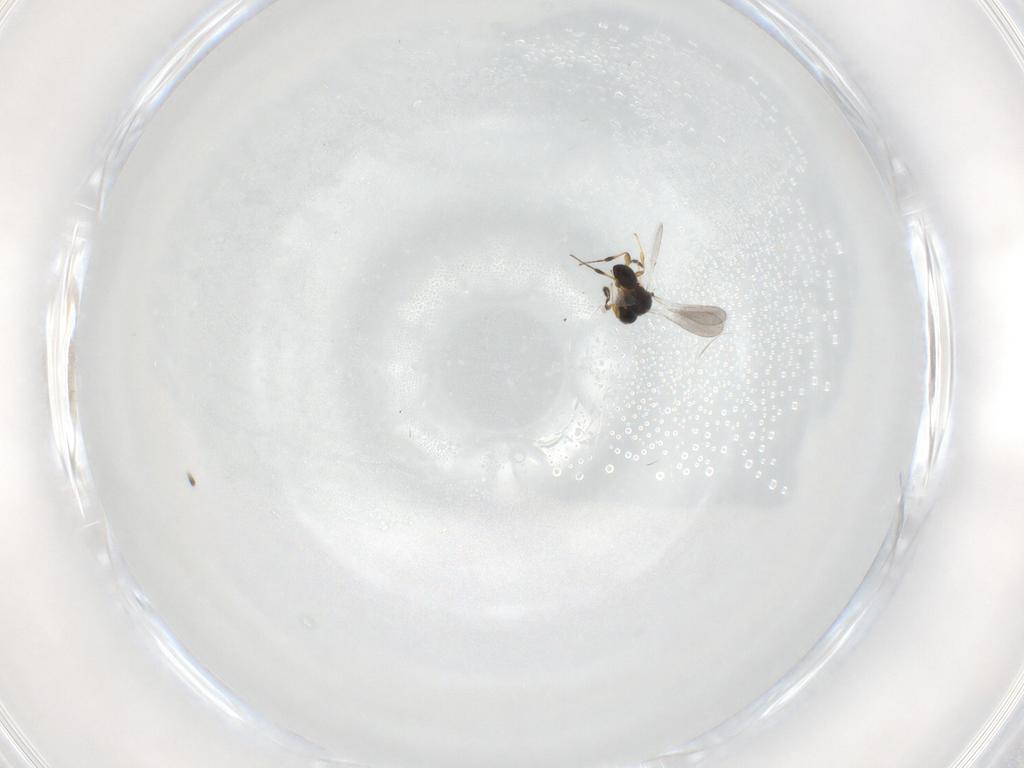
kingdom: Animalia
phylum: Arthropoda
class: Insecta
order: Hymenoptera
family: Platygastridae
